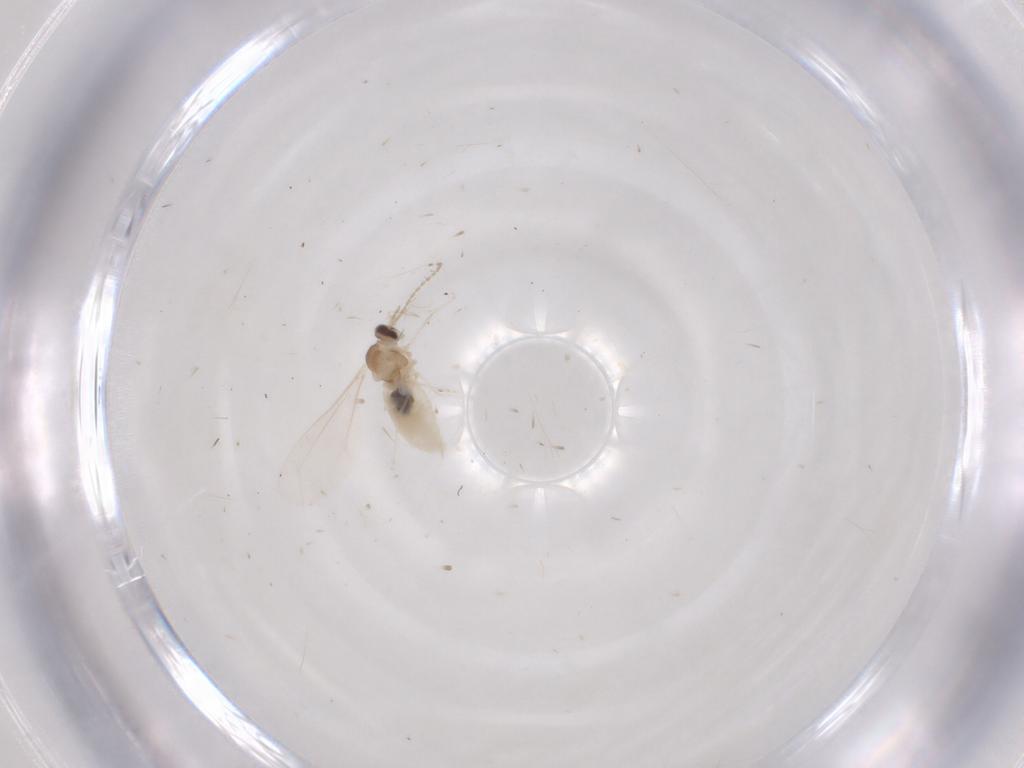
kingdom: Animalia
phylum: Arthropoda
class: Insecta
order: Diptera
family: Cecidomyiidae
